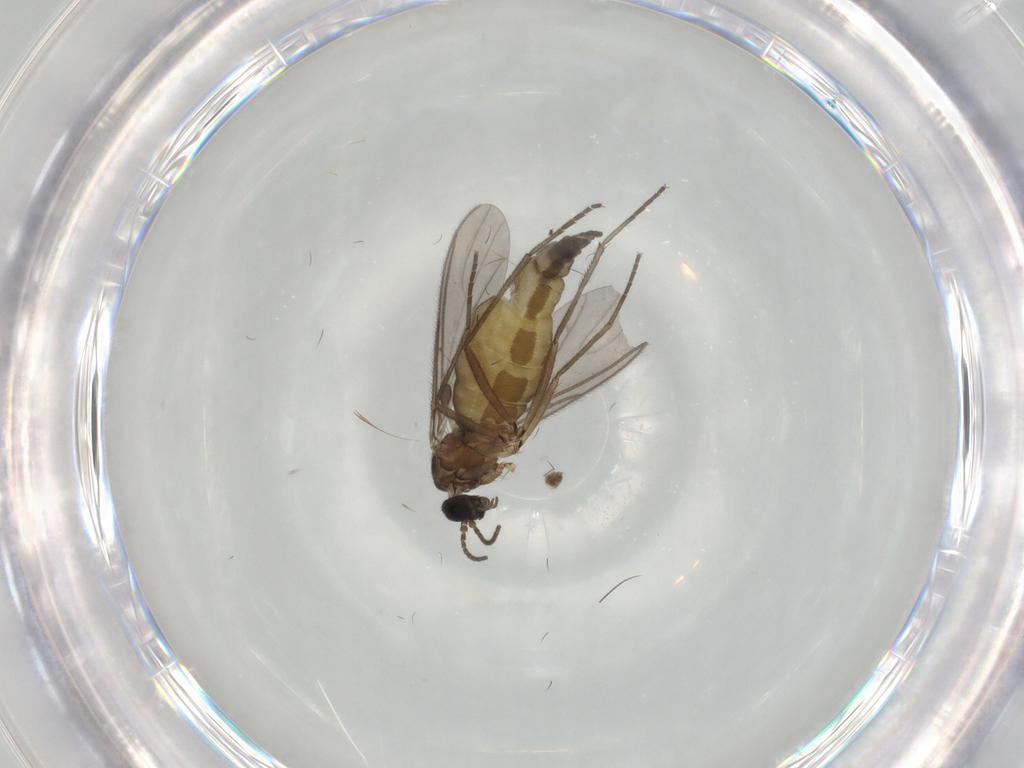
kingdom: Animalia
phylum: Arthropoda
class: Insecta
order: Diptera
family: Sciaridae
